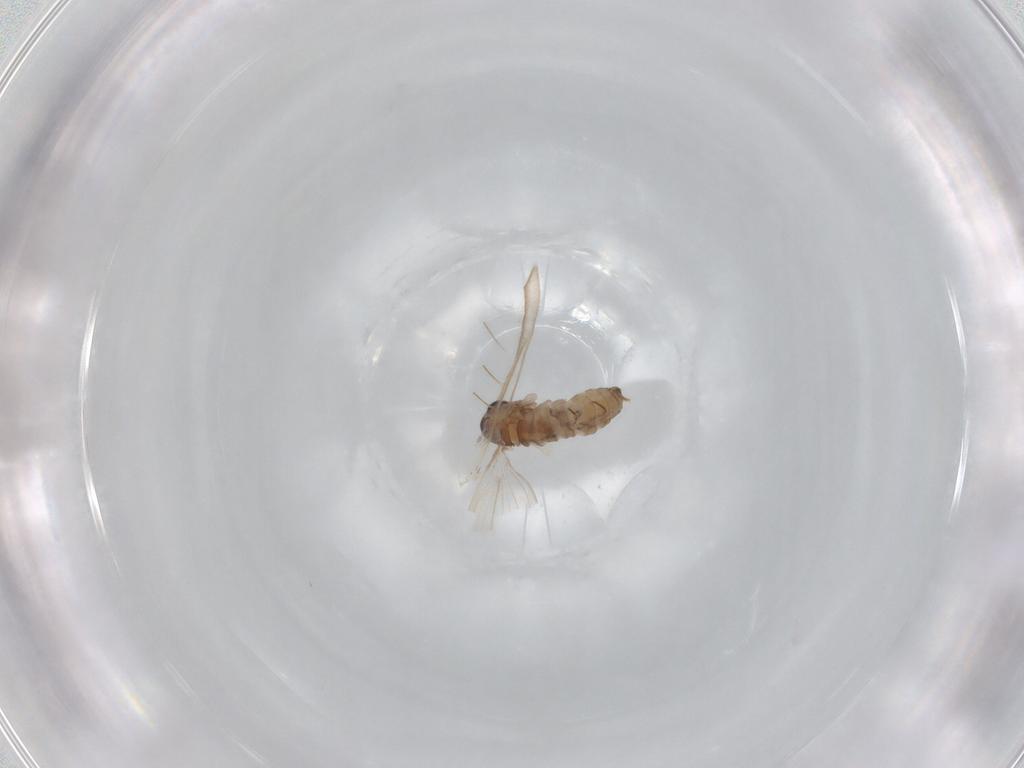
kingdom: Animalia
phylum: Arthropoda
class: Insecta
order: Diptera
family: Psychodidae
